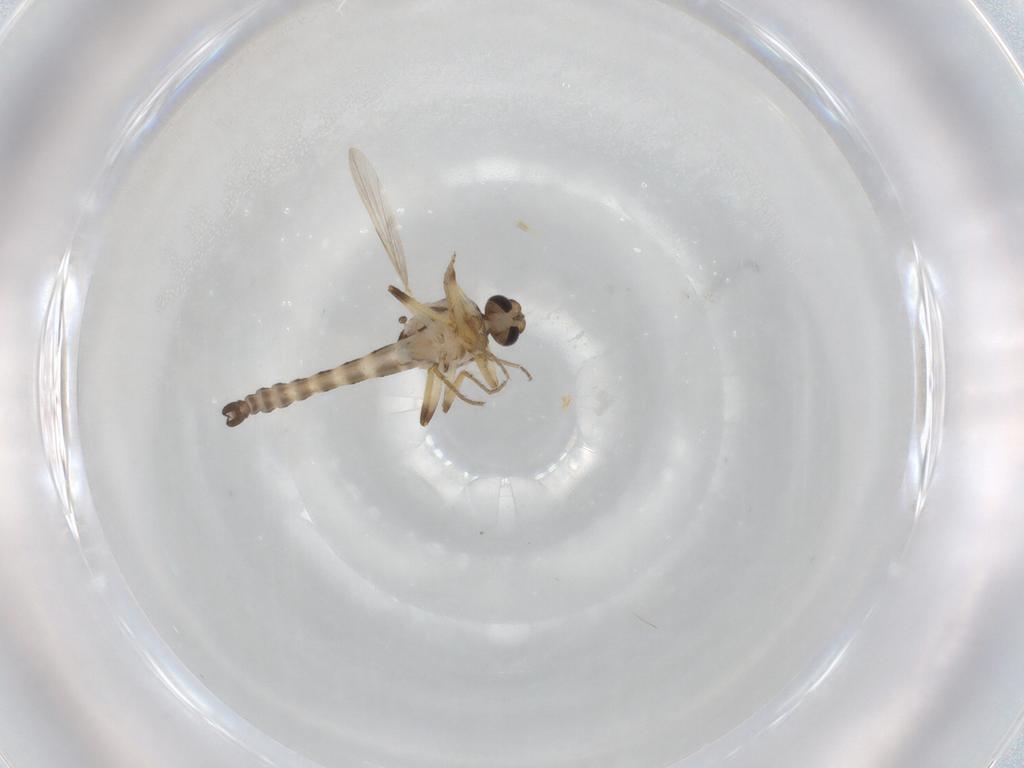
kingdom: Animalia
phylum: Arthropoda
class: Insecta
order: Diptera
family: Ceratopogonidae
